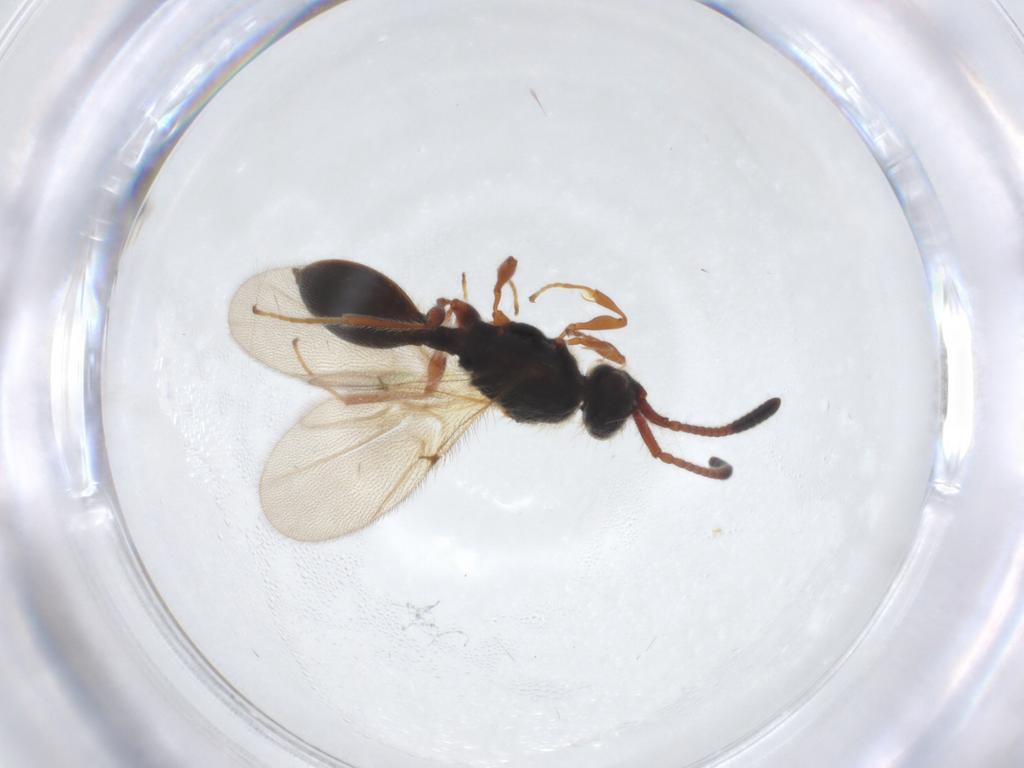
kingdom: Animalia
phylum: Arthropoda
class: Insecta
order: Hymenoptera
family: Diapriidae
